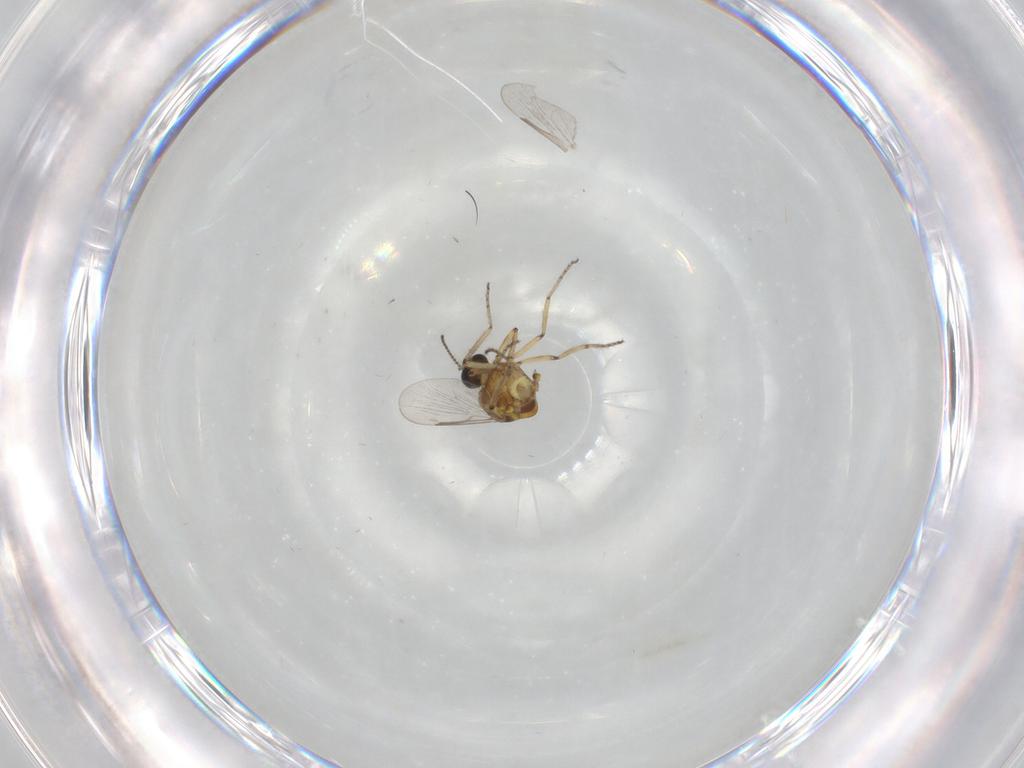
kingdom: Animalia
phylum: Arthropoda
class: Insecta
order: Diptera
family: Ceratopogonidae
